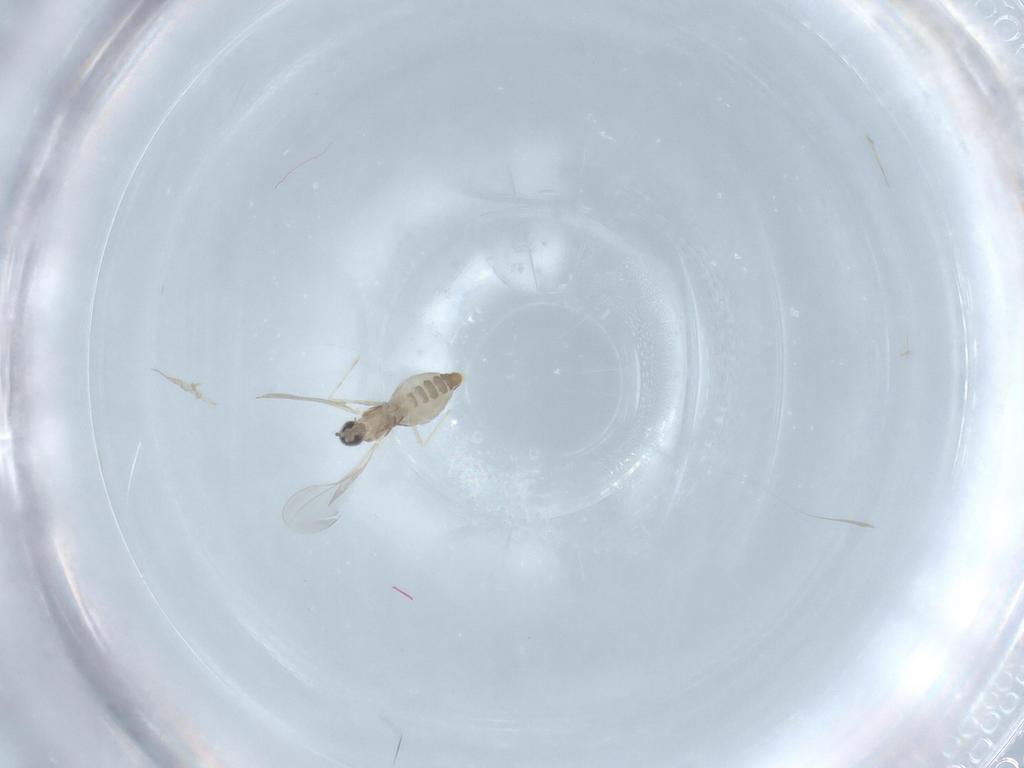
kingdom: Animalia
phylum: Arthropoda
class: Insecta
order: Diptera
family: Cecidomyiidae
